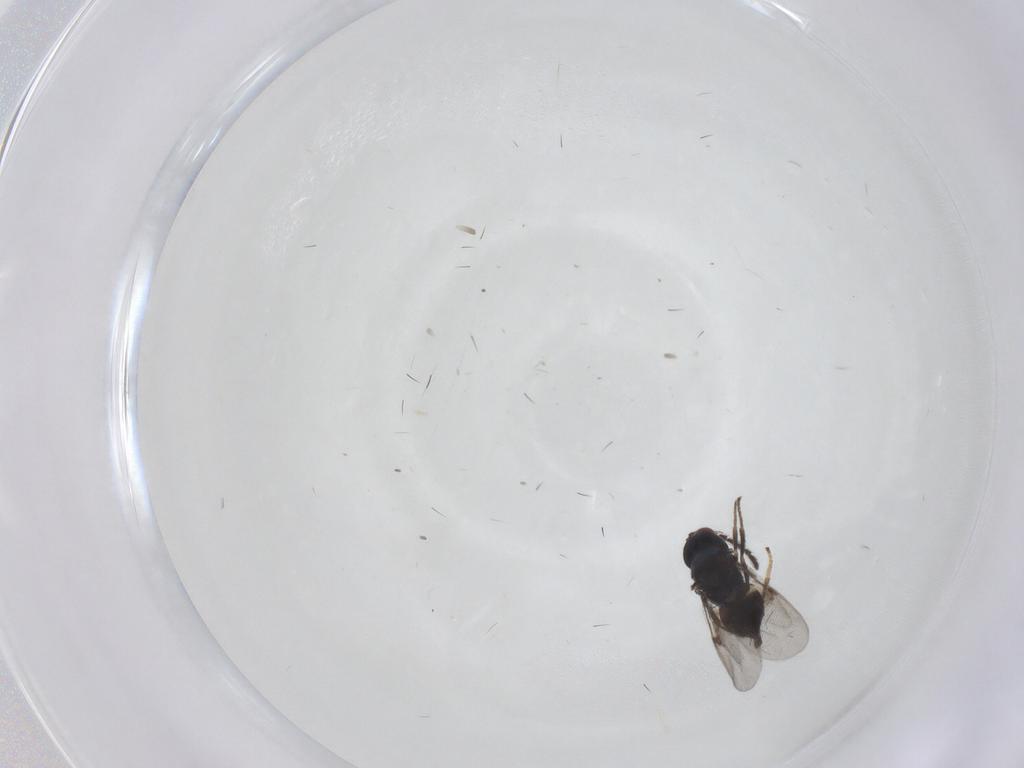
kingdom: Animalia
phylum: Arthropoda
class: Insecta
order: Hymenoptera
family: Encyrtidae
